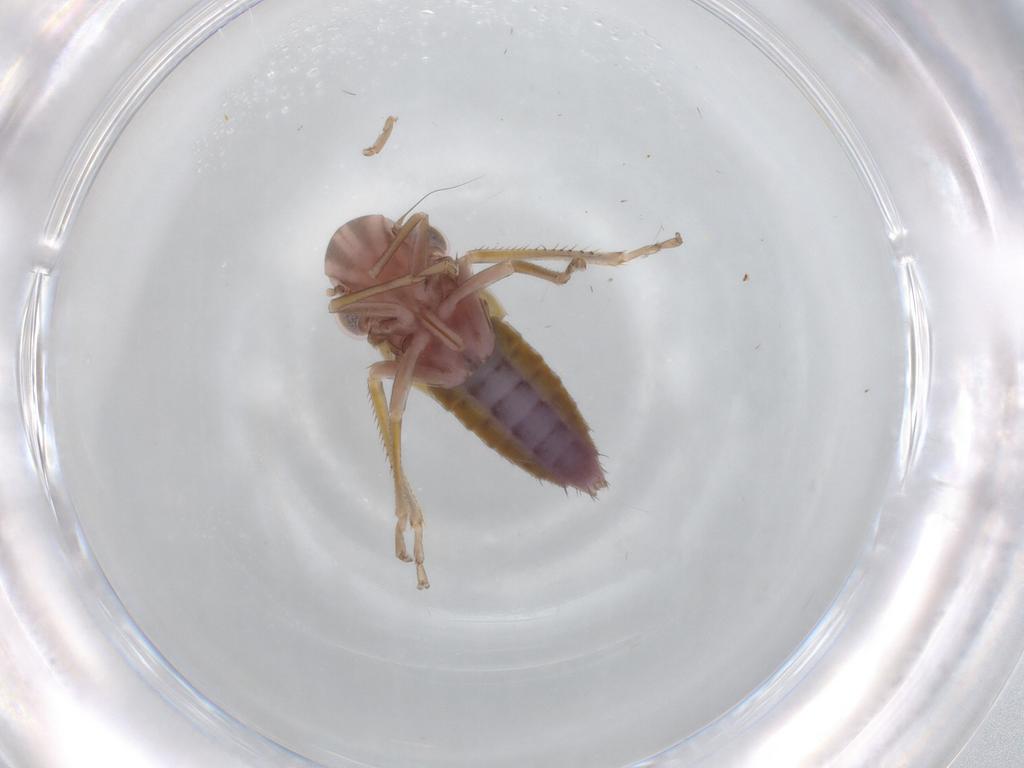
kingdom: Animalia
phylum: Arthropoda
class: Insecta
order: Hemiptera
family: Cicadellidae
